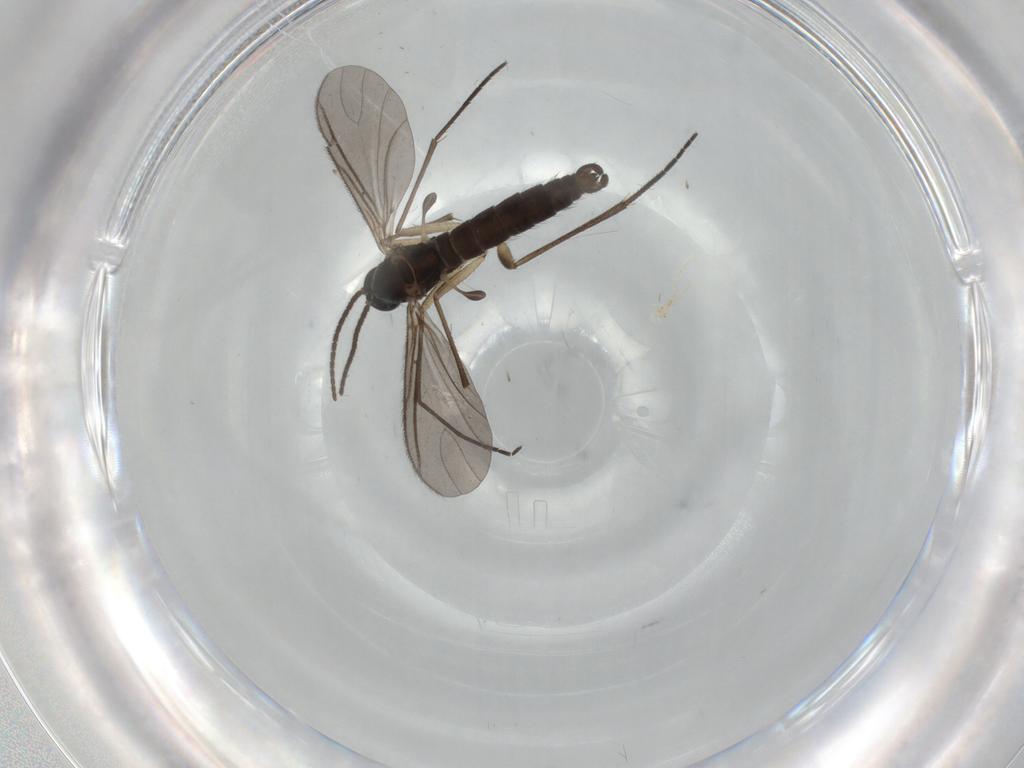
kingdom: Animalia
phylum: Arthropoda
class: Insecta
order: Diptera
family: Sciaridae
